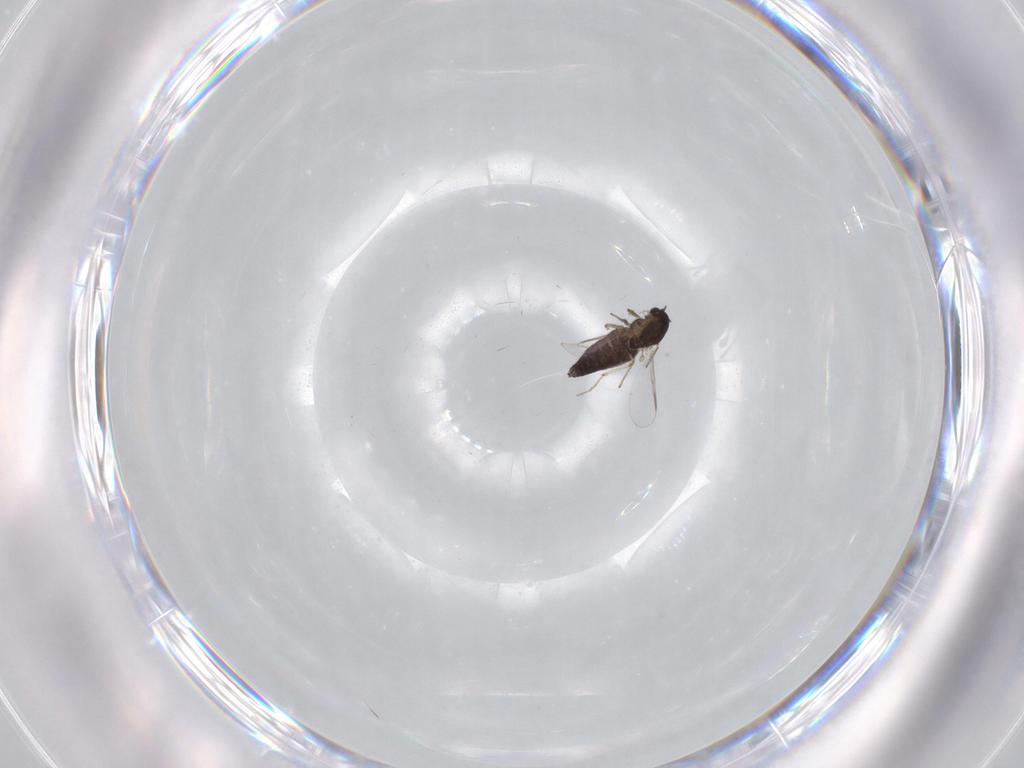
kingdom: Animalia
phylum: Arthropoda
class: Insecta
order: Diptera
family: Chironomidae
